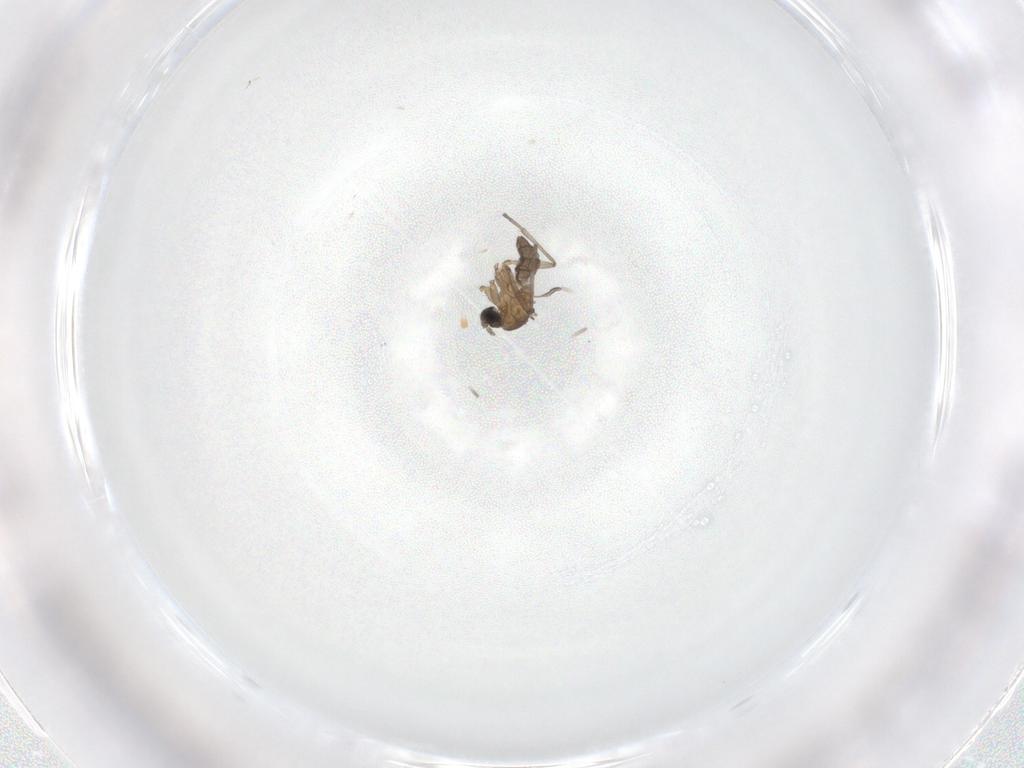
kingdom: Animalia
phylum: Arthropoda
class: Insecta
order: Diptera
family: Sciaridae
